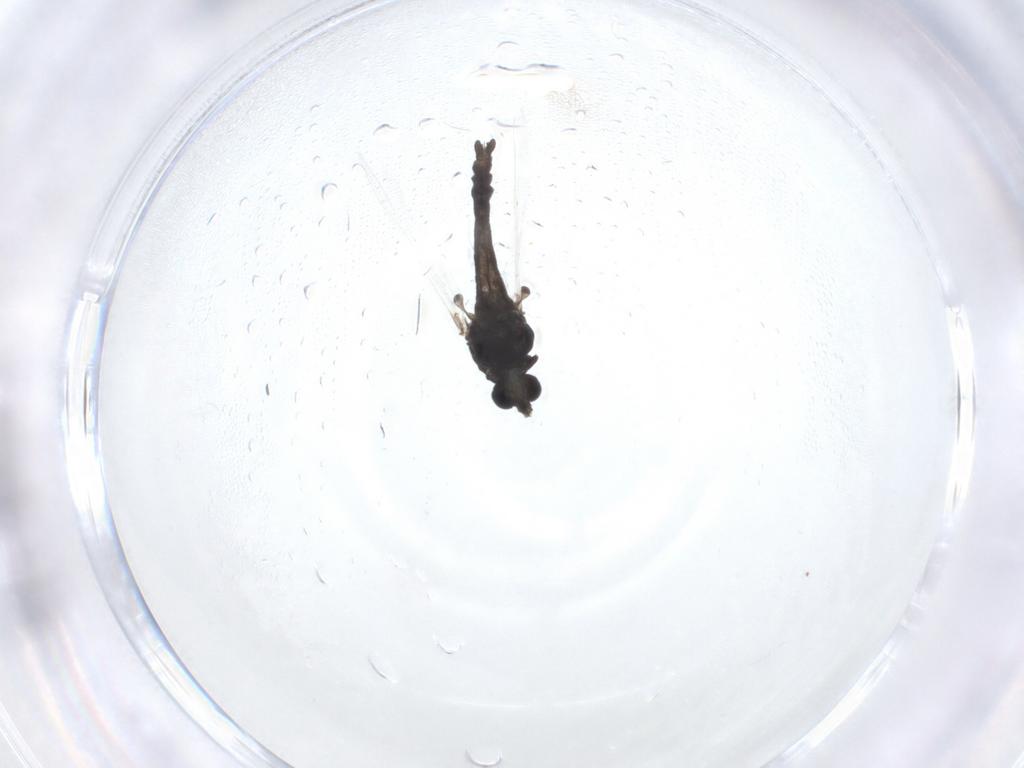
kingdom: Animalia
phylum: Arthropoda
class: Insecta
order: Diptera
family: Chironomidae
